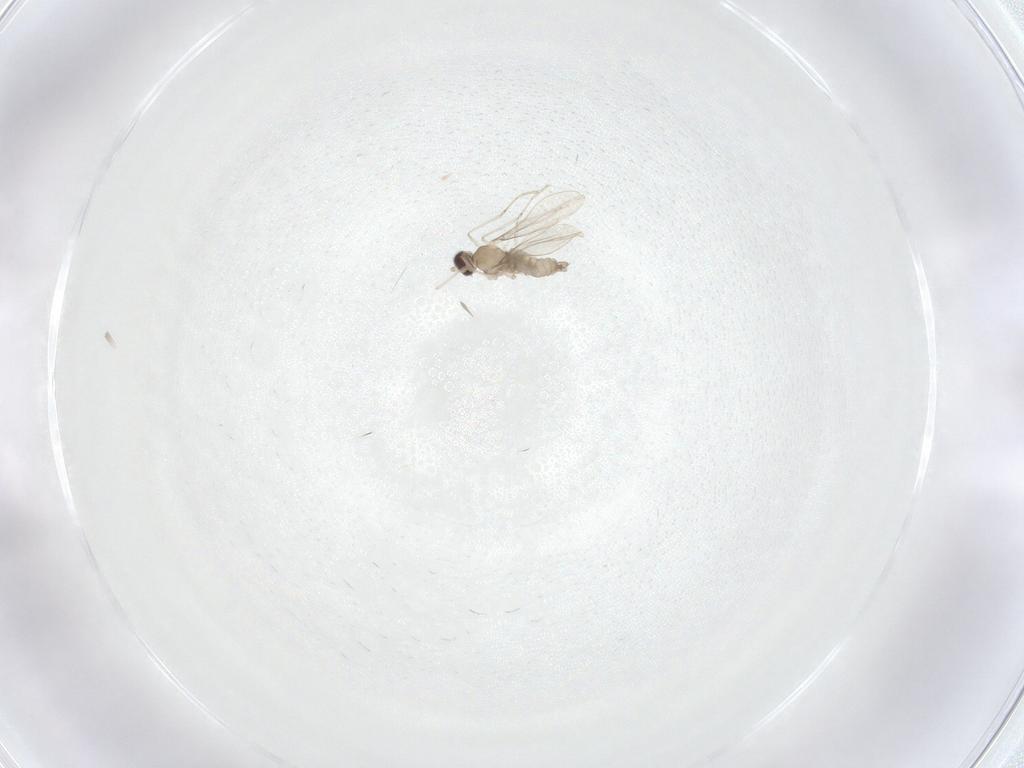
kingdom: Animalia
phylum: Arthropoda
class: Insecta
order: Diptera
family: Cecidomyiidae
